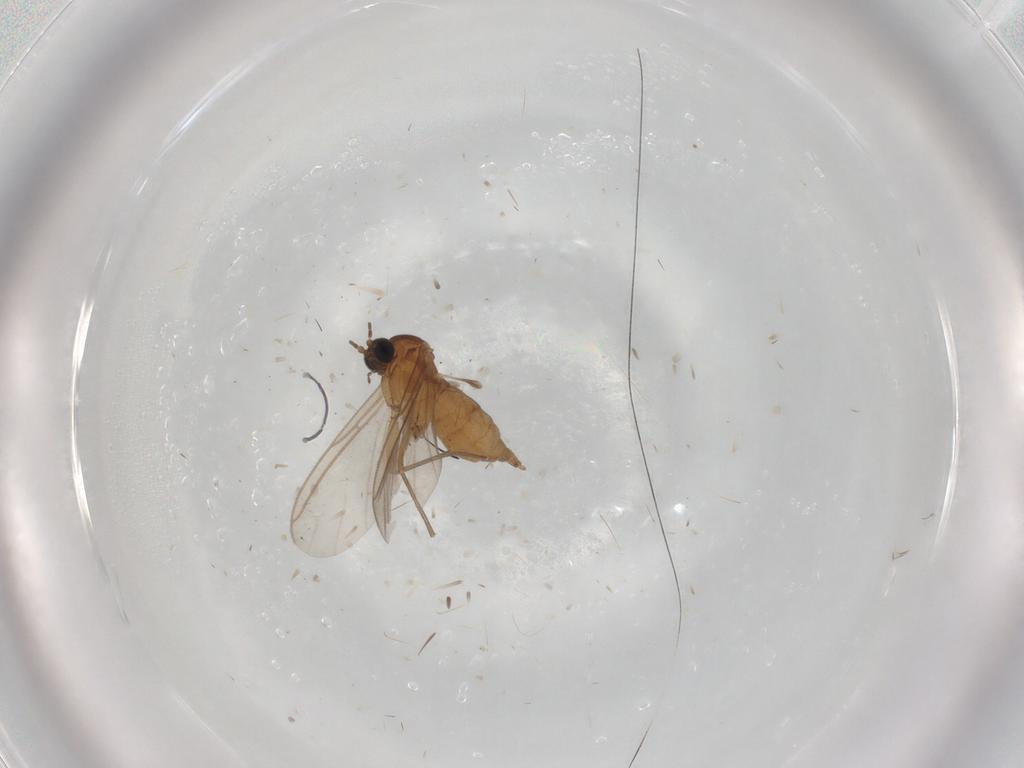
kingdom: Animalia
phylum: Arthropoda
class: Insecta
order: Diptera
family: Sciaridae
